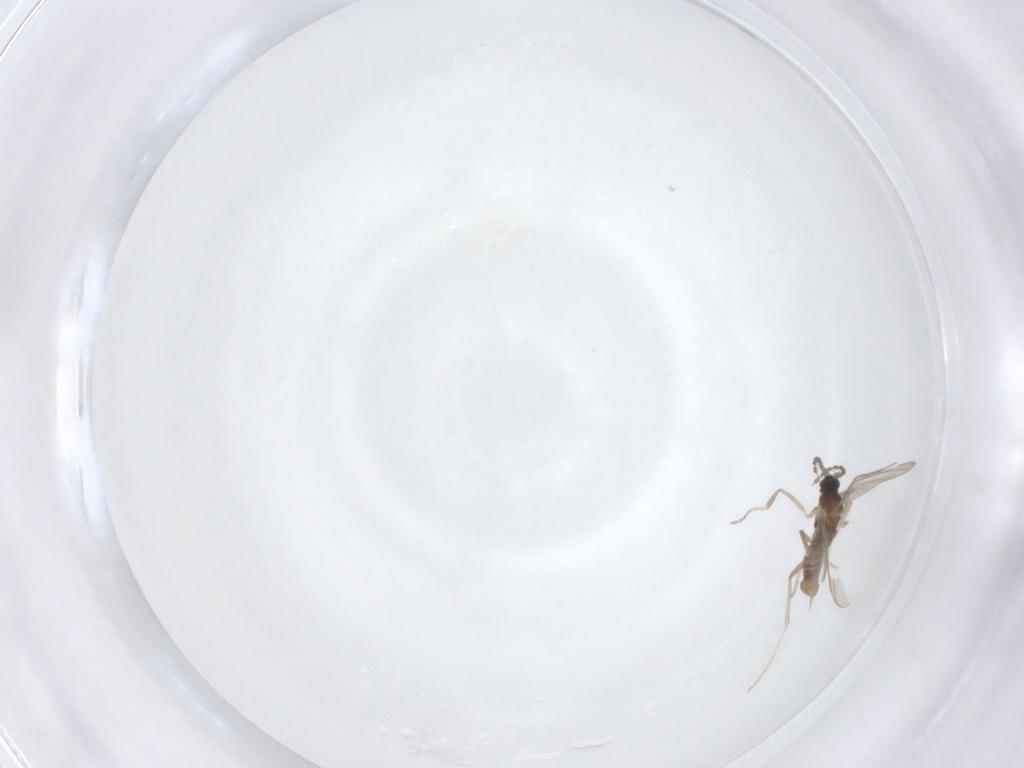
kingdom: Animalia
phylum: Arthropoda
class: Insecta
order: Diptera
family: Cecidomyiidae
